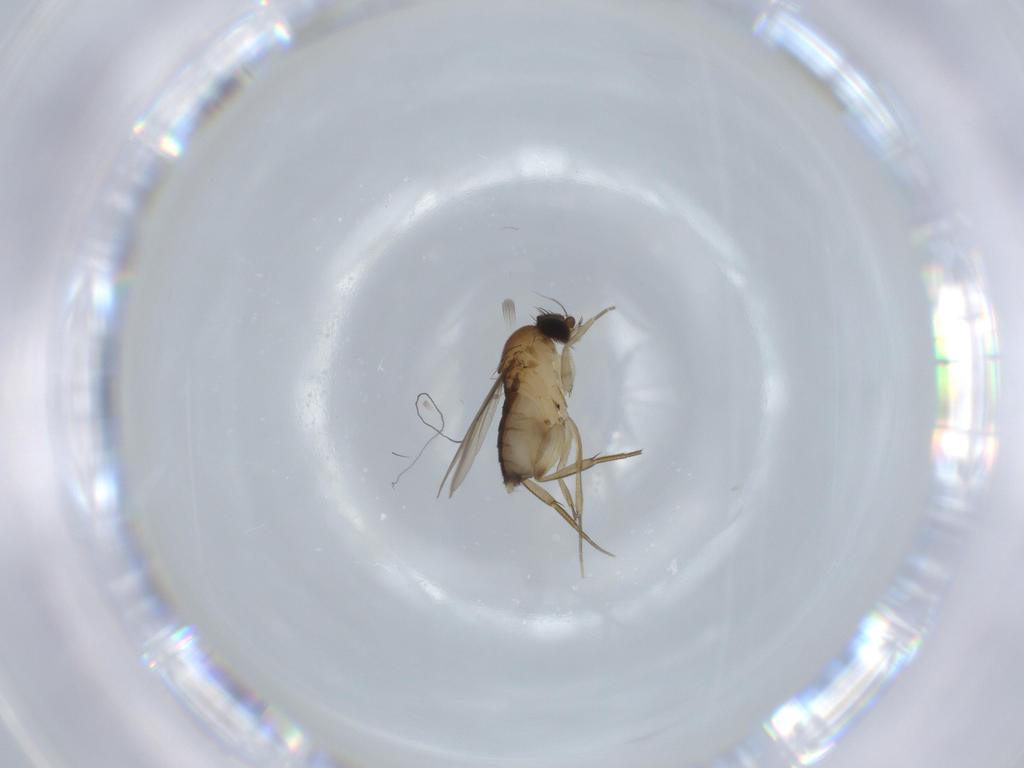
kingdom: Animalia
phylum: Arthropoda
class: Insecta
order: Diptera
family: Phoridae
